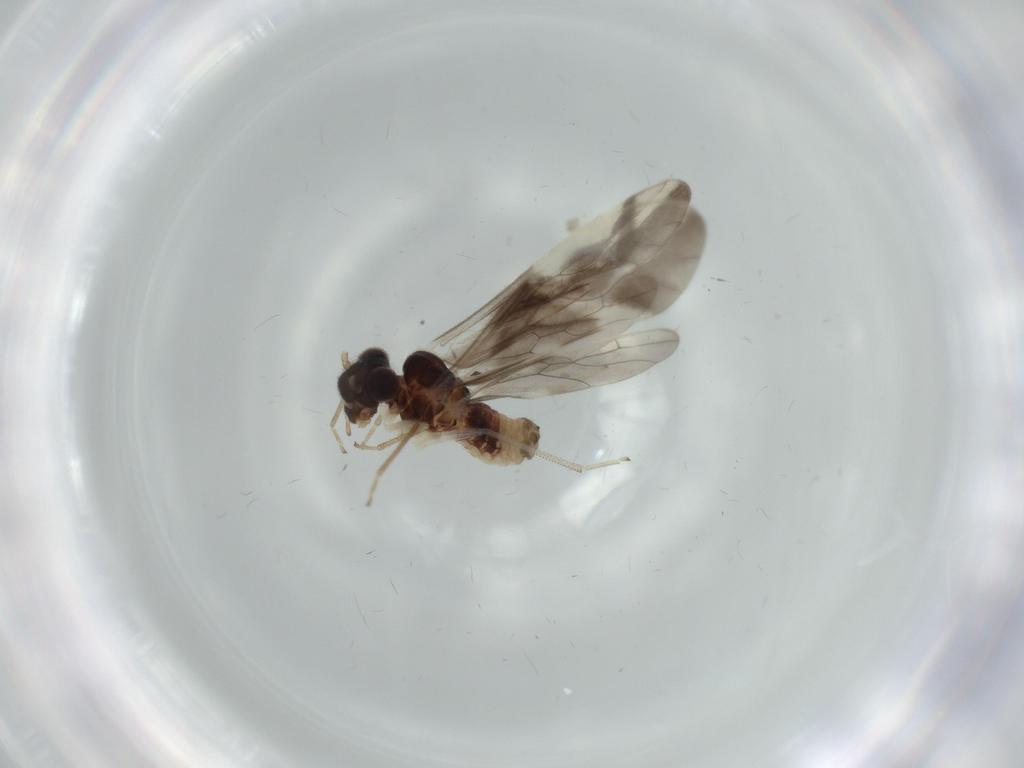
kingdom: Animalia
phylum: Arthropoda
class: Insecta
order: Psocodea
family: Caeciliusidae
